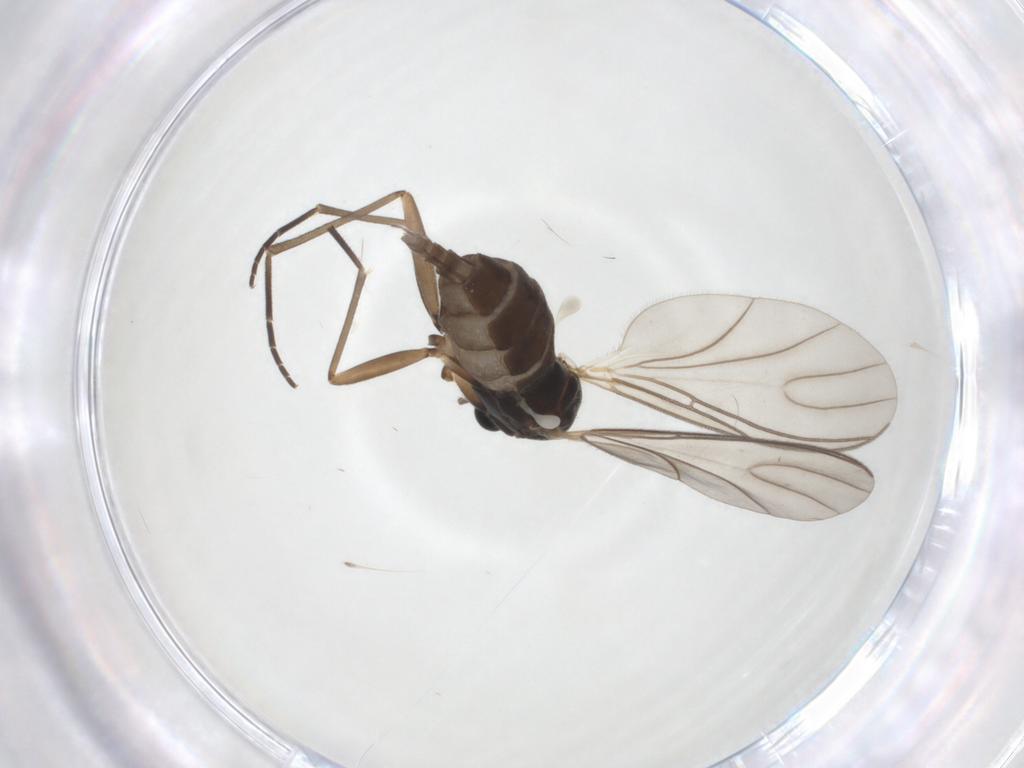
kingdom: Animalia
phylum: Arthropoda
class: Insecta
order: Diptera
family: Sciaridae
